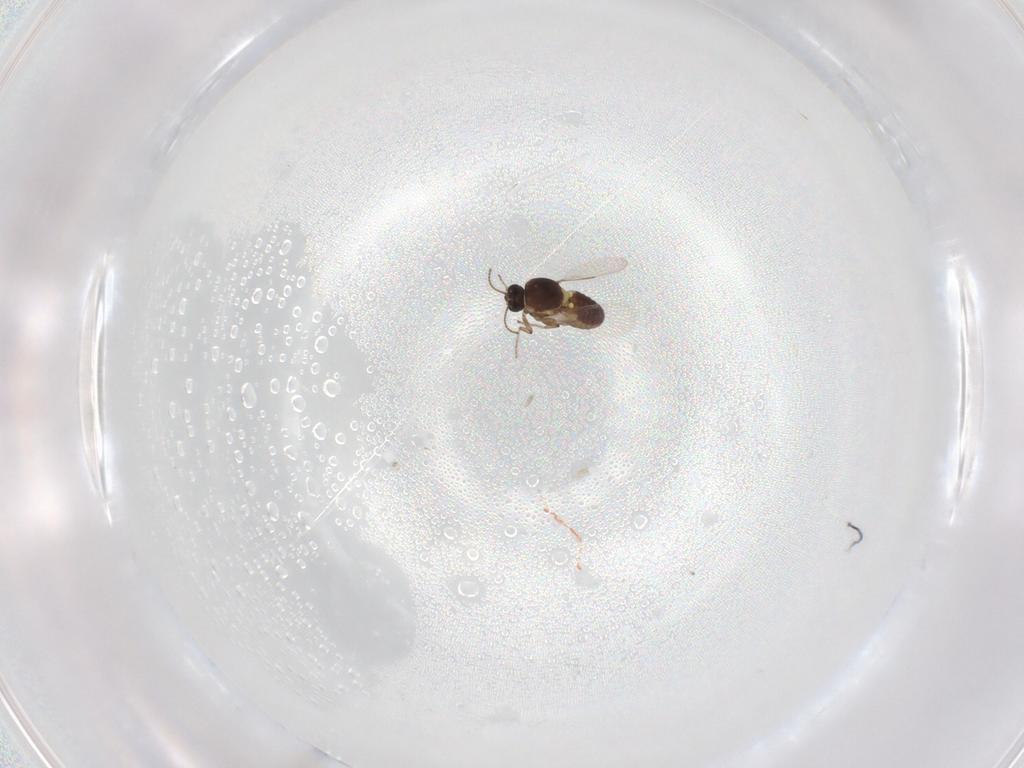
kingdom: Animalia
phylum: Arthropoda
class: Insecta
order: Diptera
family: Ceratopogonidae
